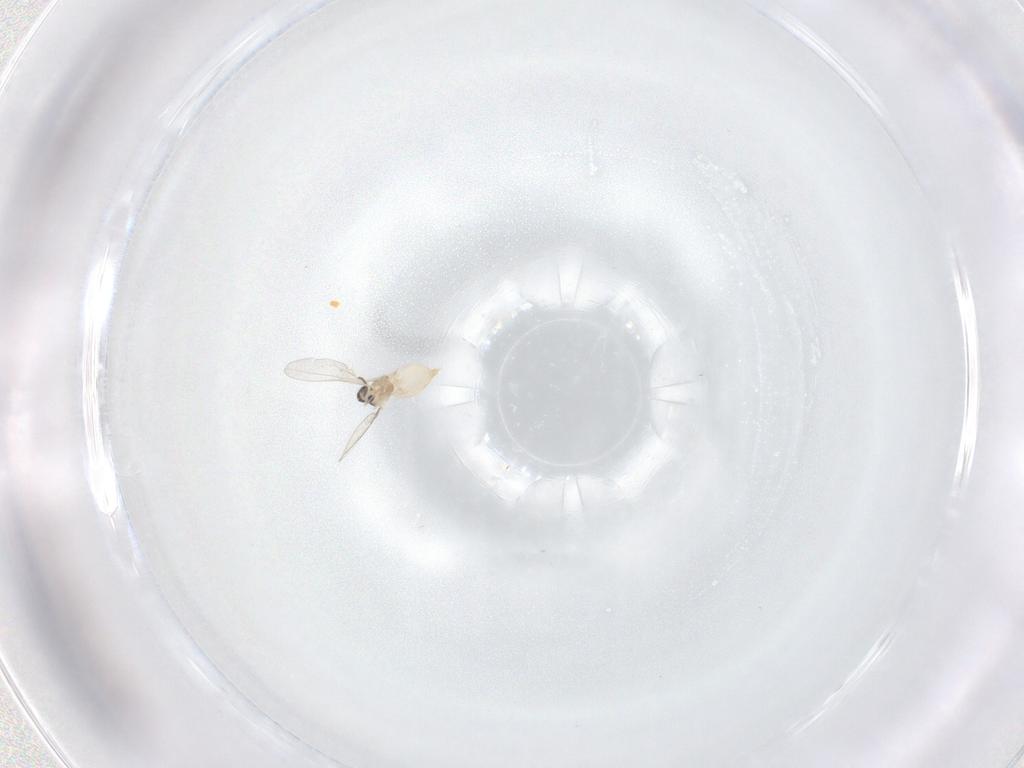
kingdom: Animalia
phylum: Arthropoda
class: Insecta
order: Diptera
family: Cecidomyiidae
